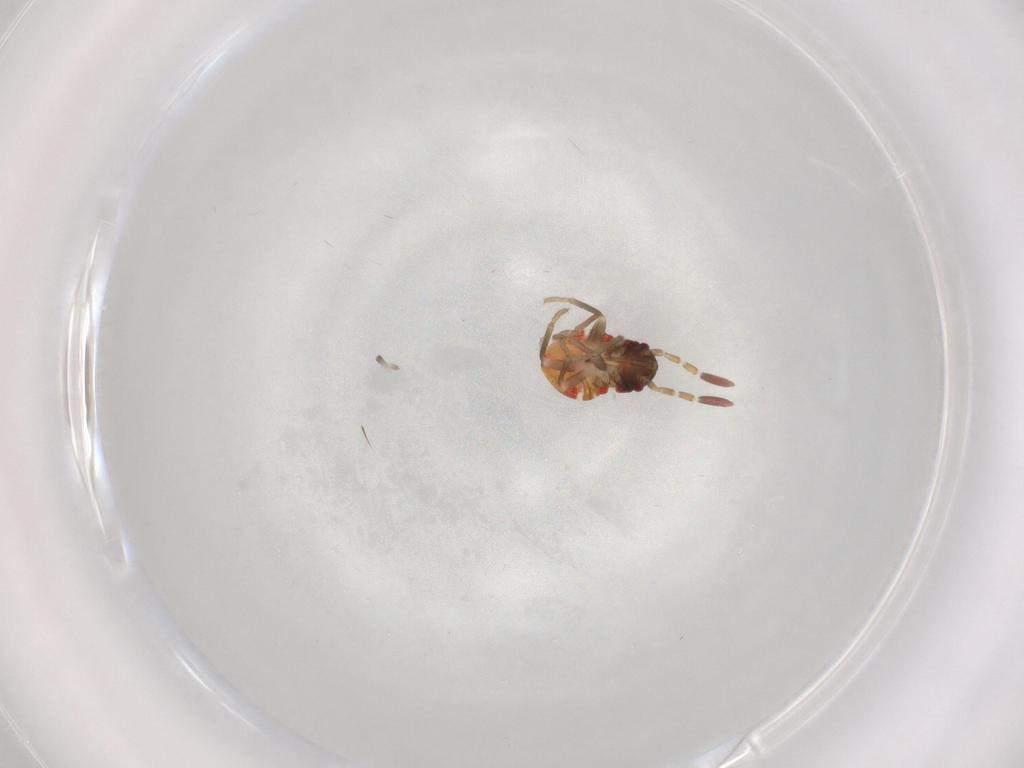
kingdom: Animalia
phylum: Arthropoda
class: Insecta
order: Hemiptera
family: Rhyparochromidae
